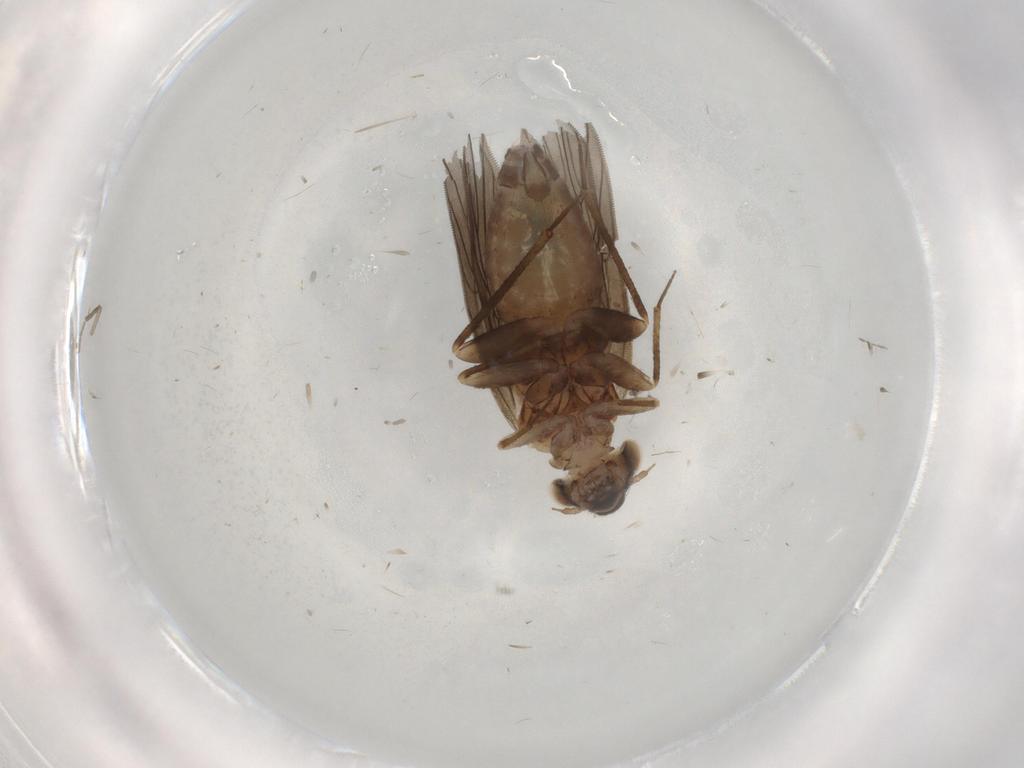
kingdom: Animalia
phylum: Arthropoda
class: Insecta
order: Psocodea
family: Lepidopsocidae
